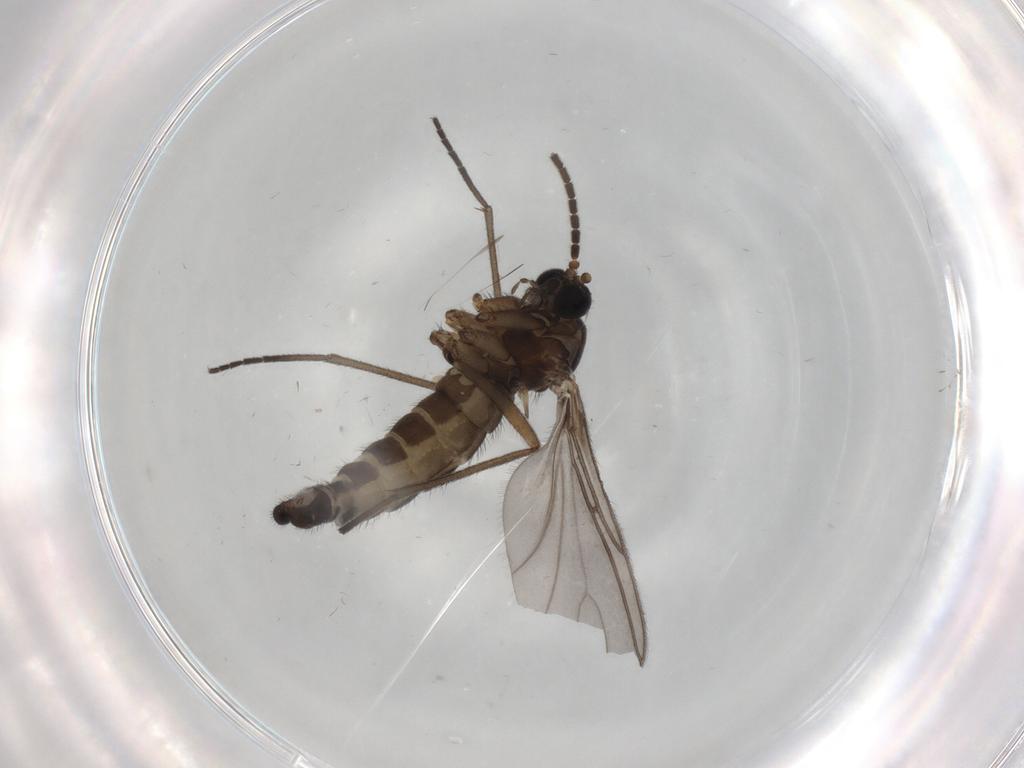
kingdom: Animalia
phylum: Arthropoda
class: Insecta
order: Diptera
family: Sciaridae
